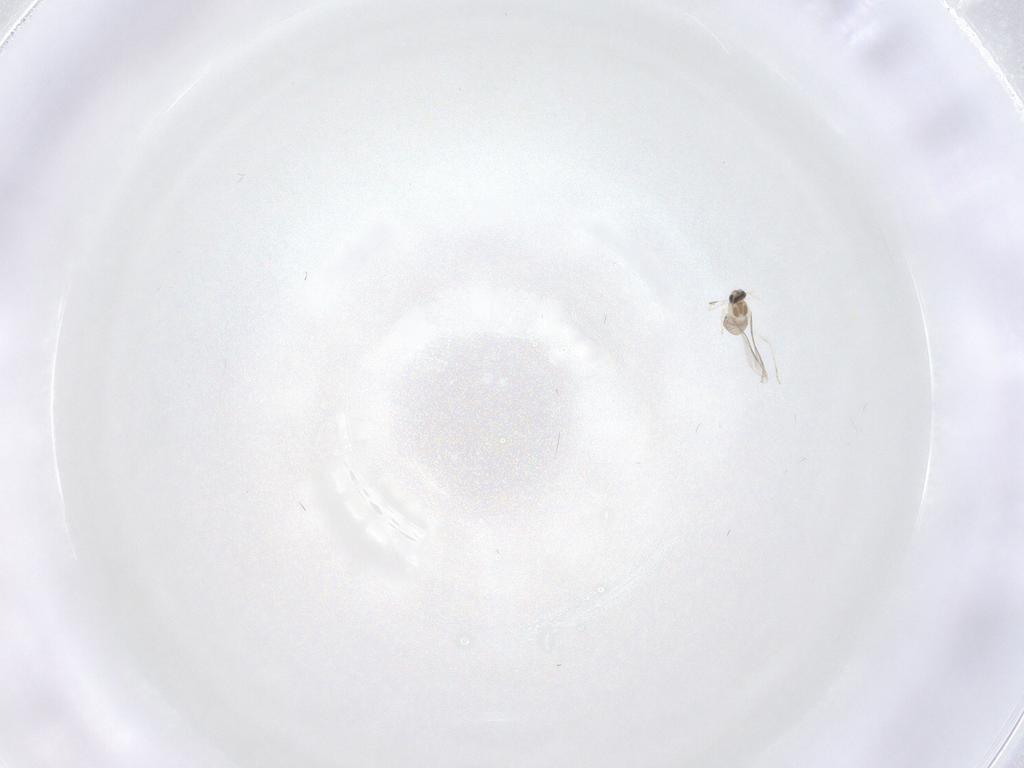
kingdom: Animalia
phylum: Arthropoda
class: Insecta
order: Diptera
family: Cecidomyiidae
